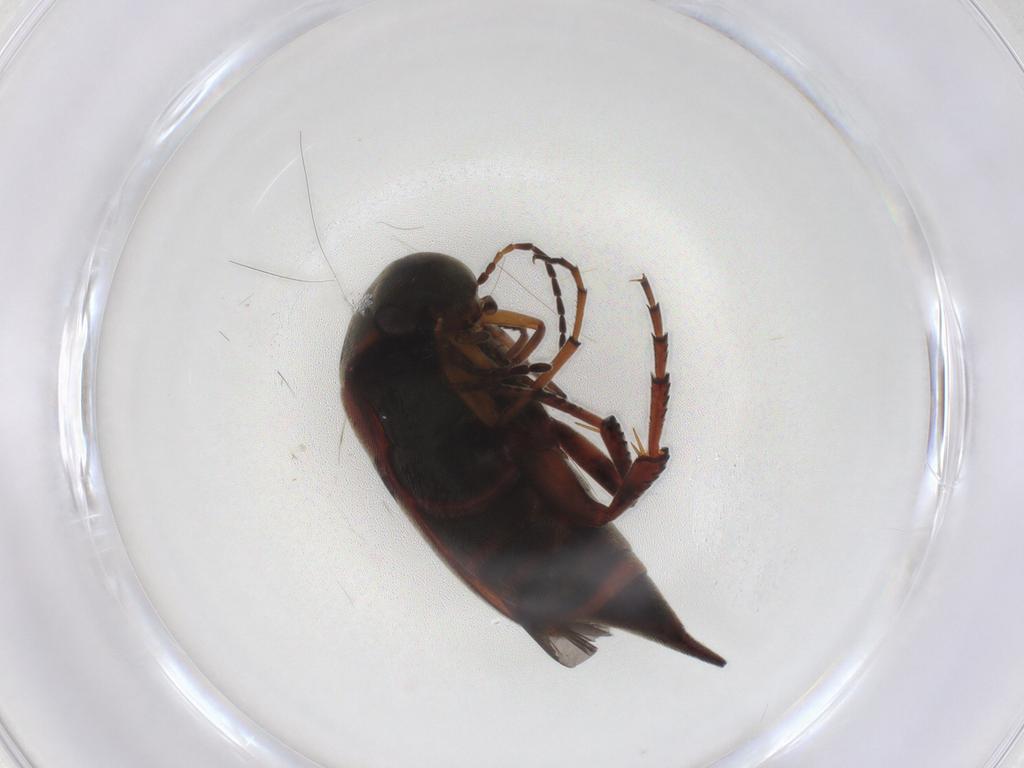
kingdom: Animalia
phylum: Arthropoda
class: Insecta
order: Coleoptera
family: Mordellidae
